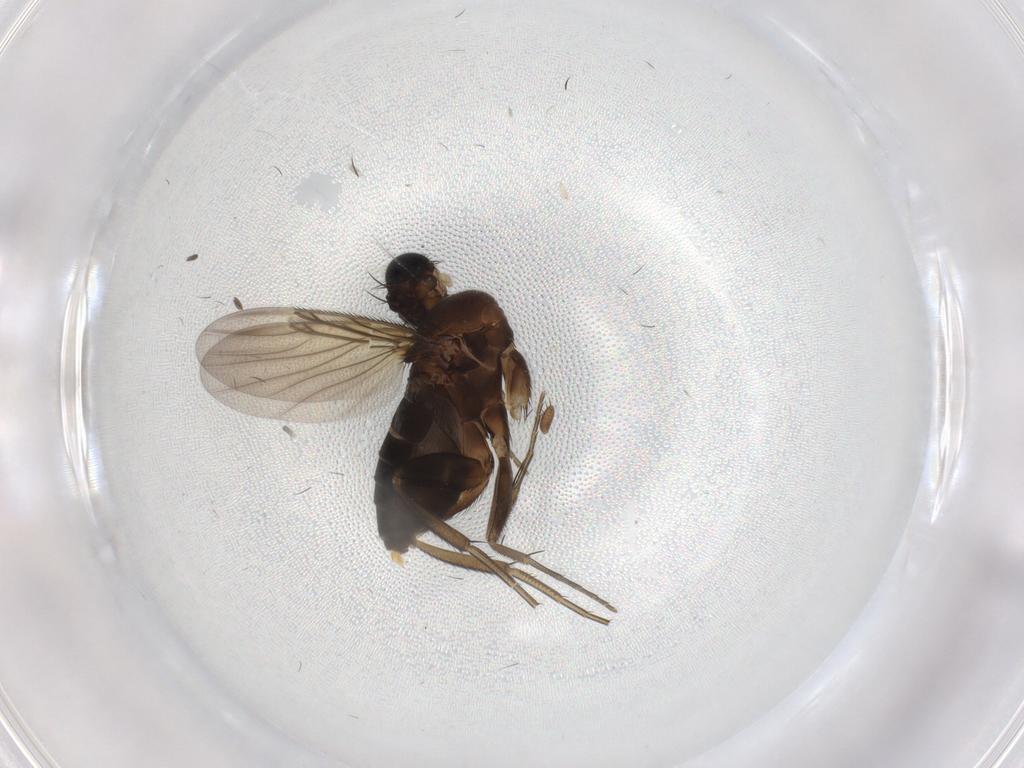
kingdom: Animalia
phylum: Arthropoda
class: Insecta
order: Diptera
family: Phoridae
